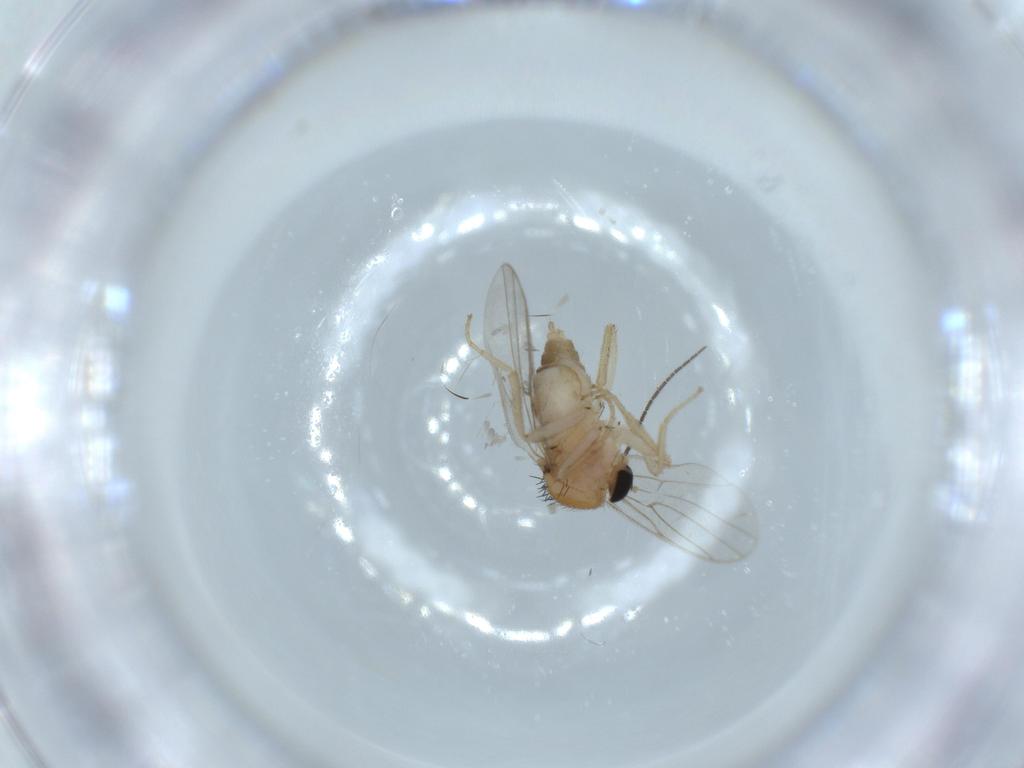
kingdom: Animalia
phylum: Arthropoda
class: Insecta
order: Diptera
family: Hybotidae
